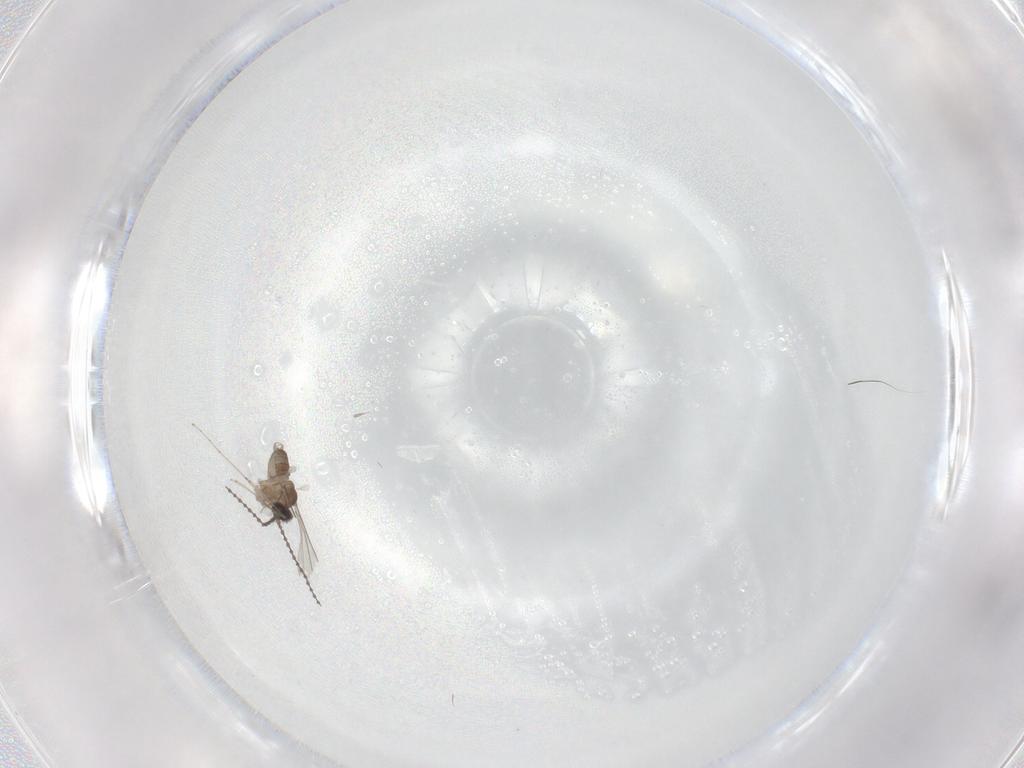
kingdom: Animalia
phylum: Arthropoda
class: Insecta
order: Diptera
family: Cecidomyiidae
